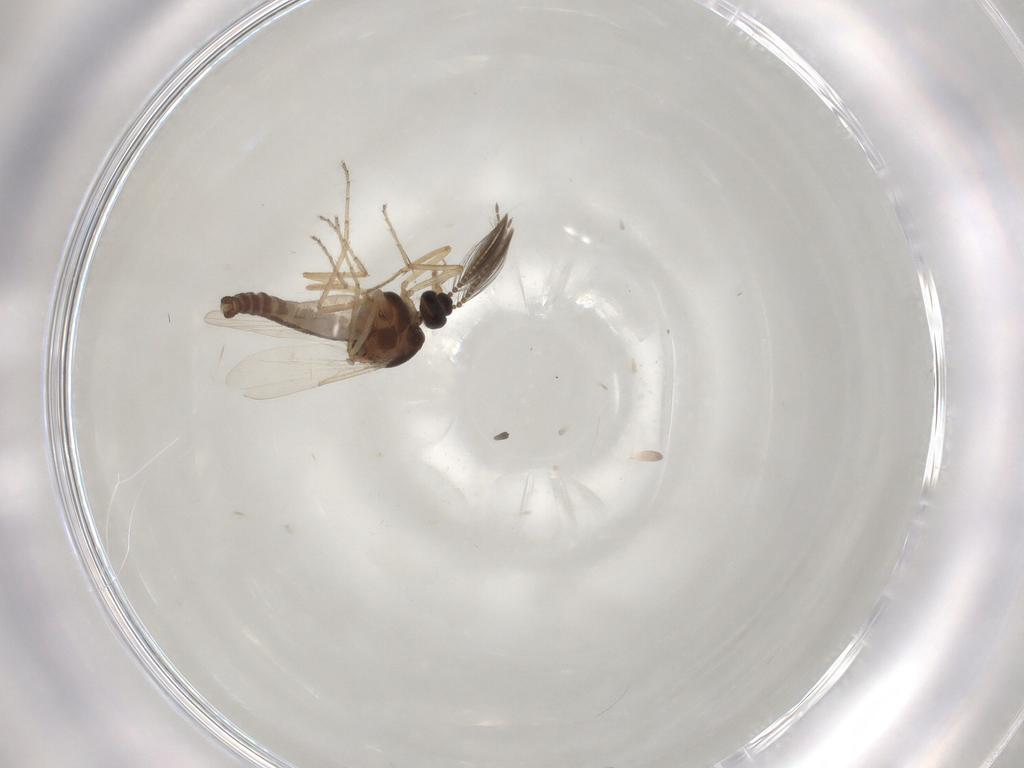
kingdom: Animalia
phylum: Arthropoda
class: Insecta
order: Diptera
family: Ceratopogonidae
